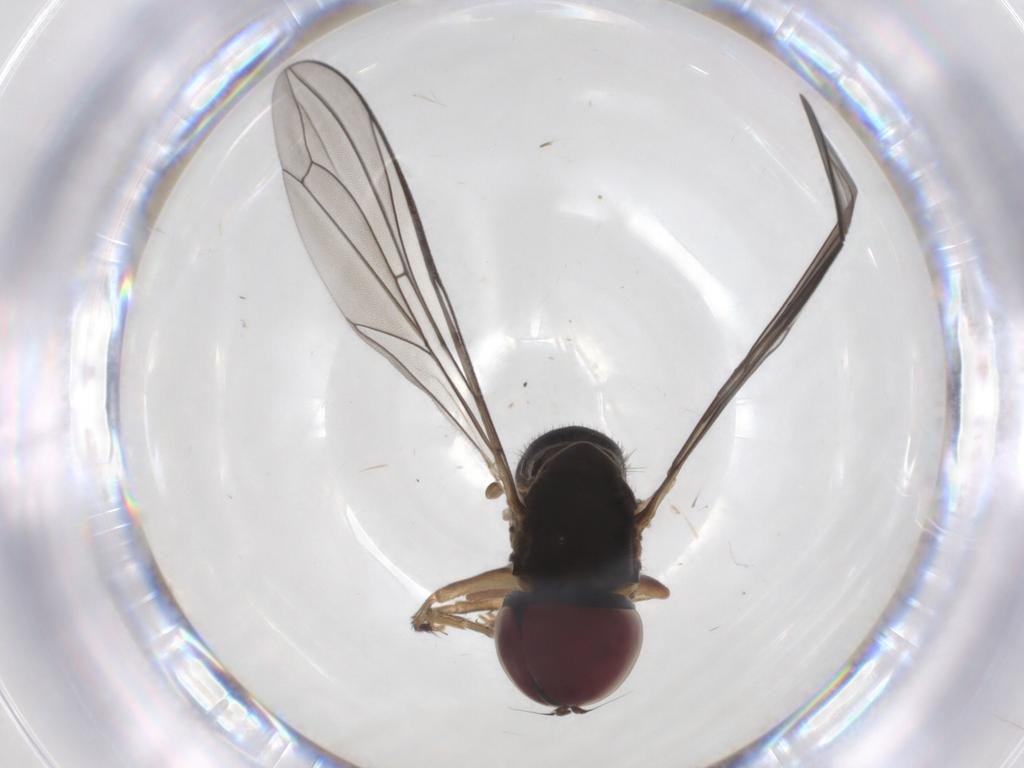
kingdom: Animalia
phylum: Arthropoda
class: Insecta
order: Diptera
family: Pipunculidae
